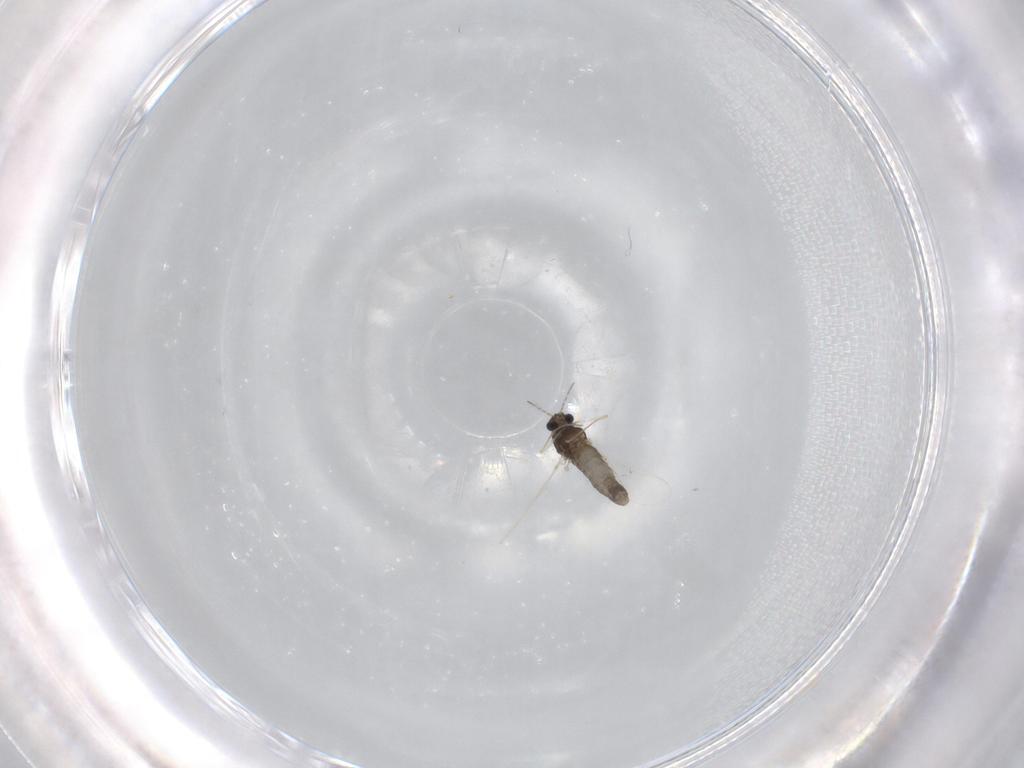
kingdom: Animalia
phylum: Arthropoda
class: Insecta
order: Diptera
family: Chironomidae
